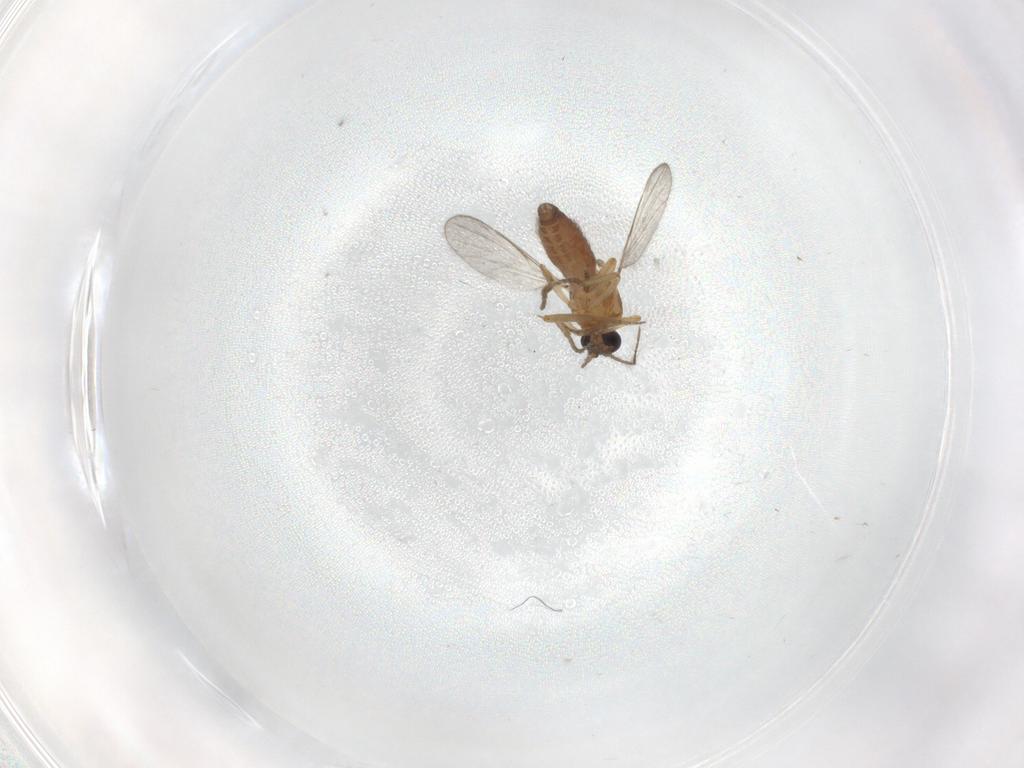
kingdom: Animalia
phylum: Arthropoda
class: Insecta
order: Diptera
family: Ceratopogonidae
